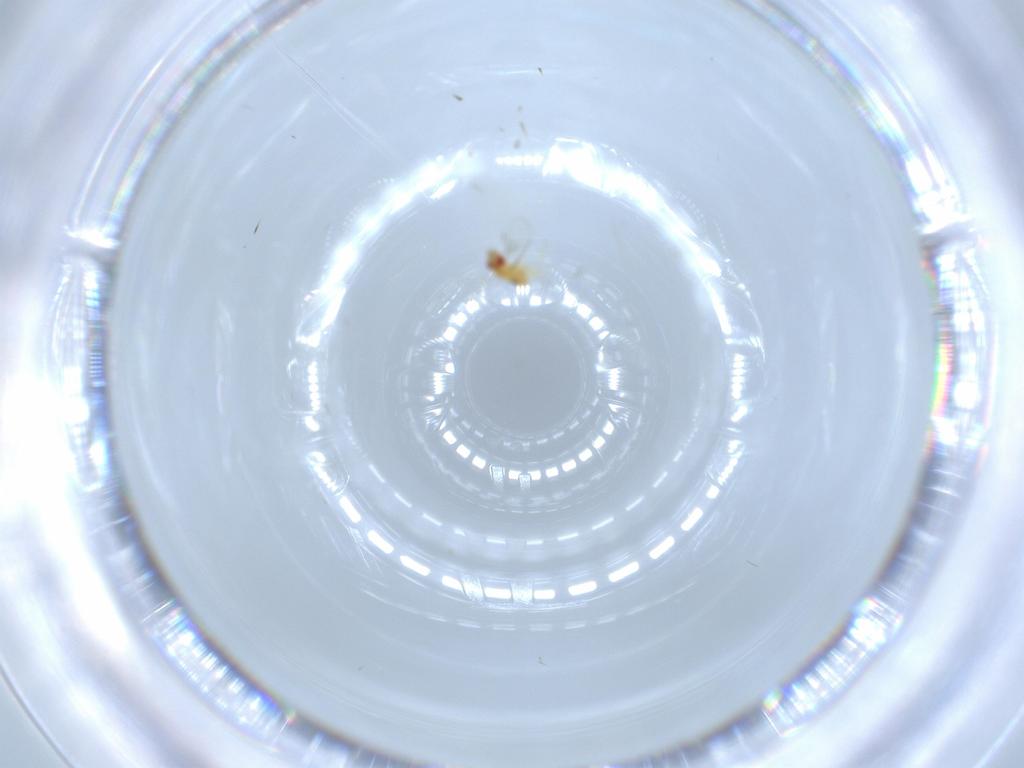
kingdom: Animalia
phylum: Arthropoda
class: Insecta
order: Hymenoptera
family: Trichogrammatidae
